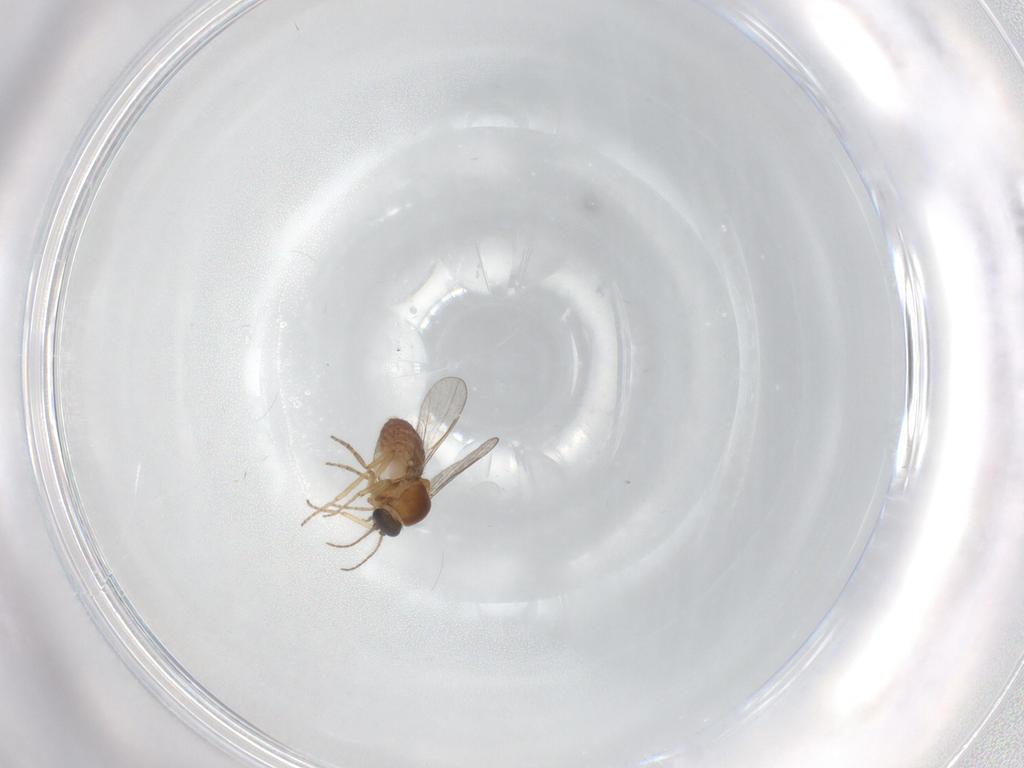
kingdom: Animalia
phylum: Arthropoda
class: Insecta
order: Diptera
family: Ceratopogonidae
